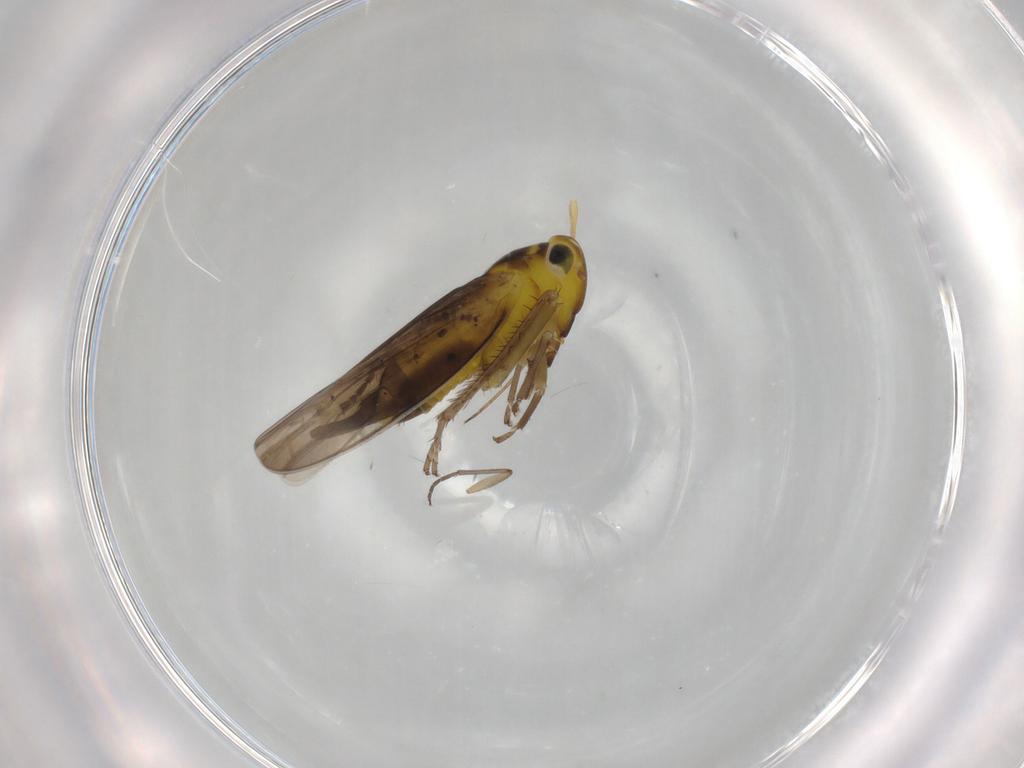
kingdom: Animalia
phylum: Arthropoda
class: Insecta
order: Hemiptera
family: Cicadellidae
